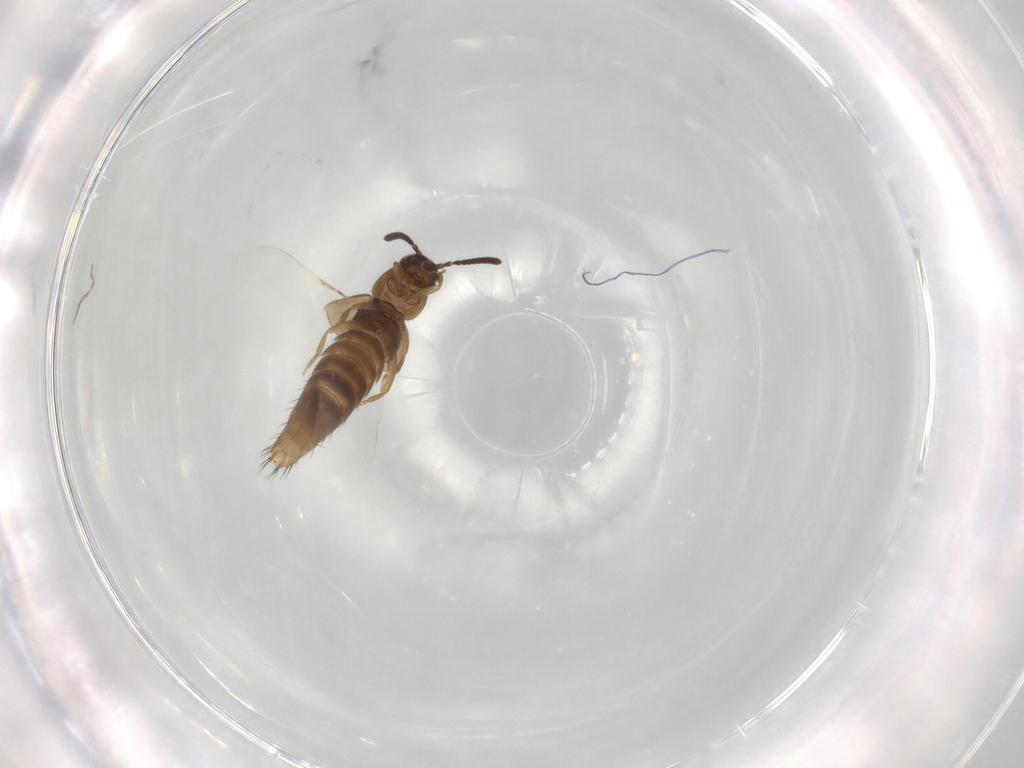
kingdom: Animalia
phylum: Arthropoda
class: Insecta
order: Coleoptera
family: Staphylinidae
